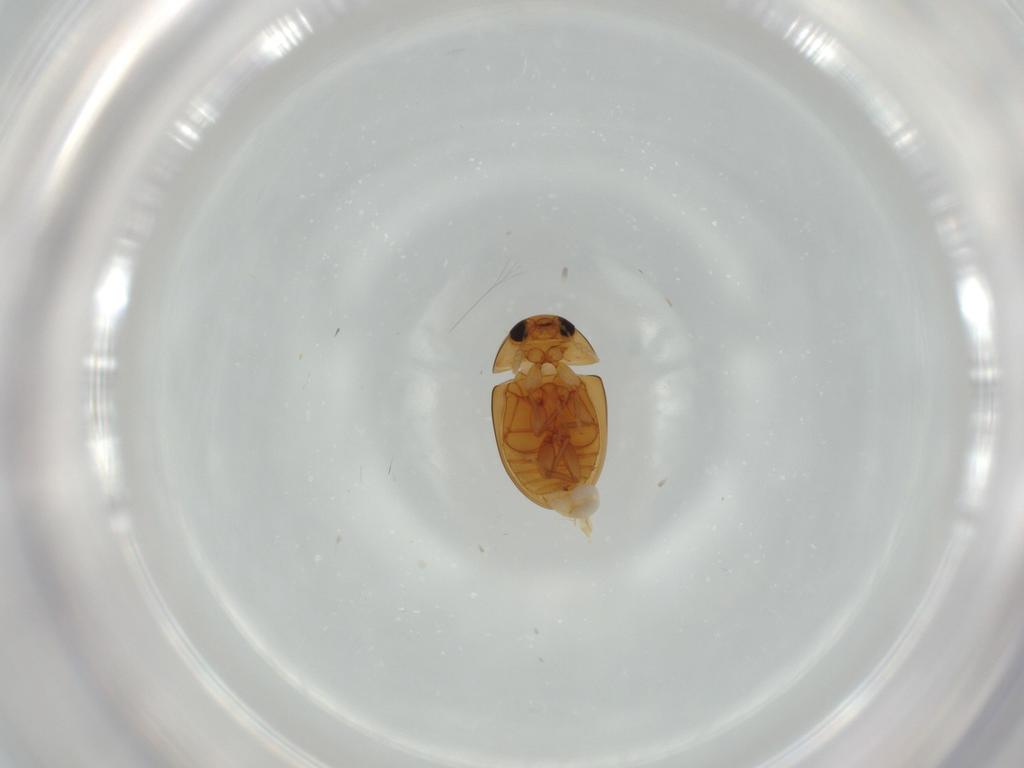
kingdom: Animalia
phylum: Arthropoda
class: Insecta
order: Coleoptera
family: Phalacridae
